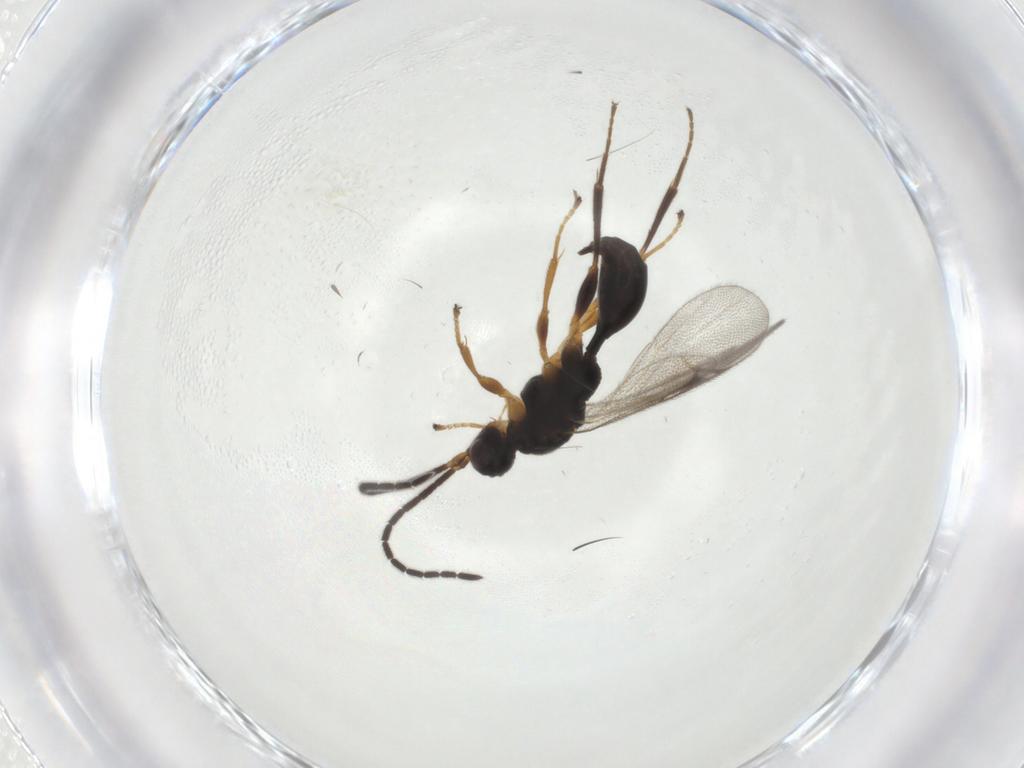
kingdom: Animalia
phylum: Arthropoda
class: Insecta
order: Hymenoptera
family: Proctotrupidae
